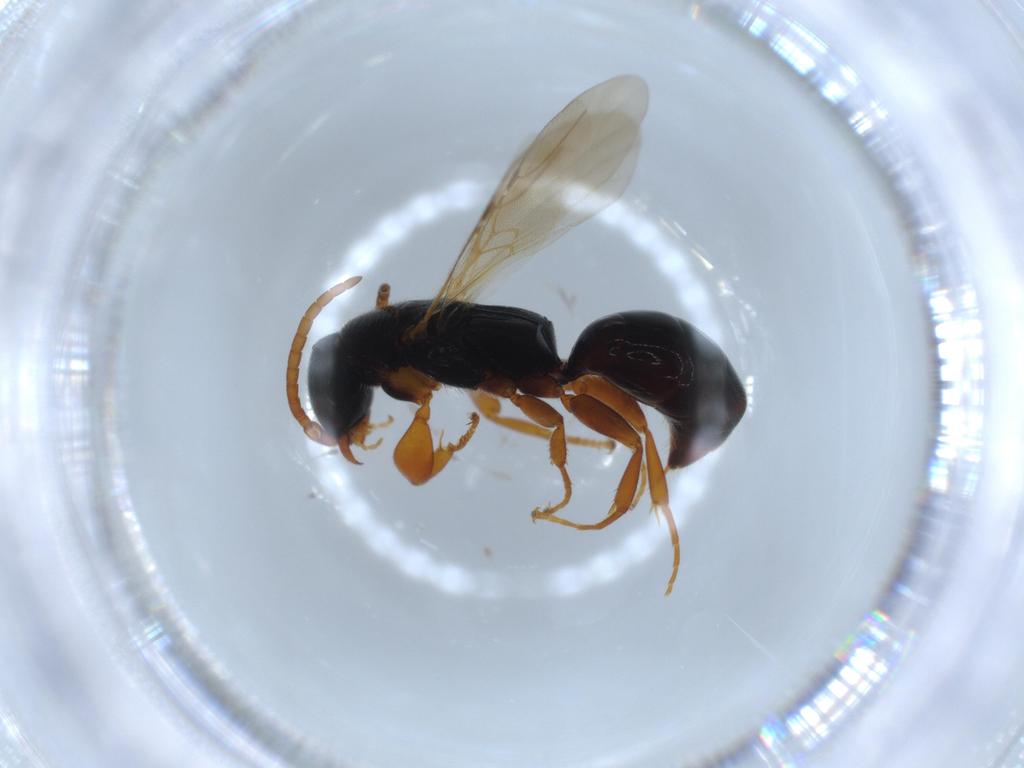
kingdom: Animalia
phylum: Arthropoda
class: Insecta
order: Hymenoptera
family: Bethylidae
